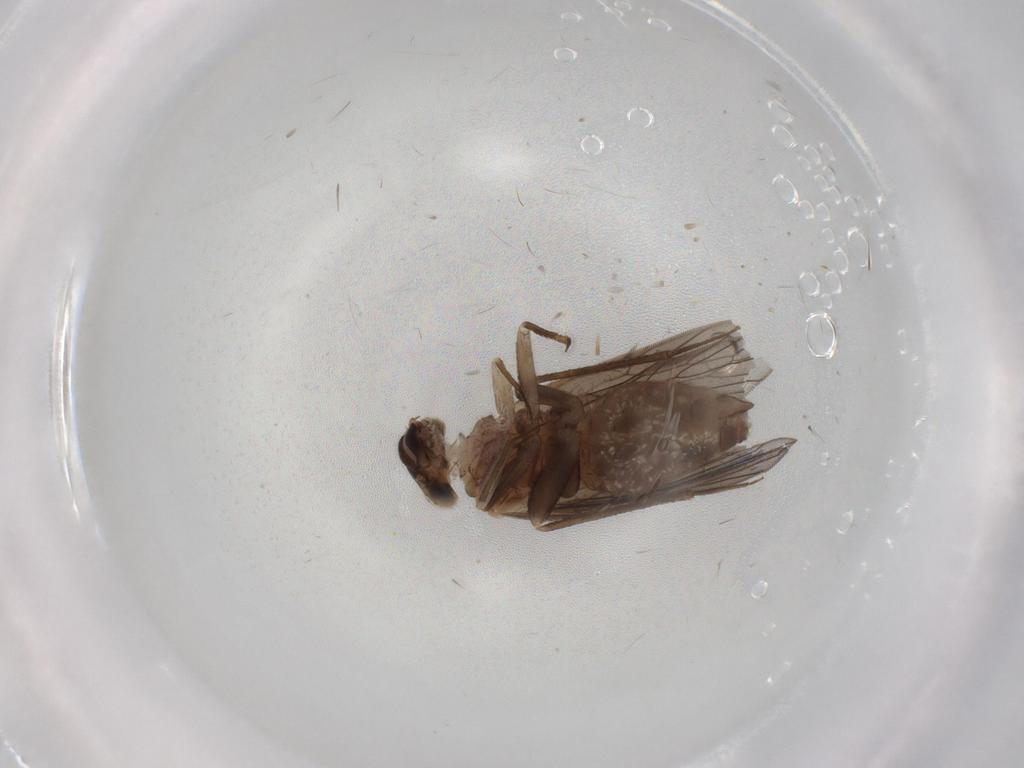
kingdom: Animalia
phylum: Arthropoda
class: Insecta
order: Psocodea
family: Lepidopsocidae
